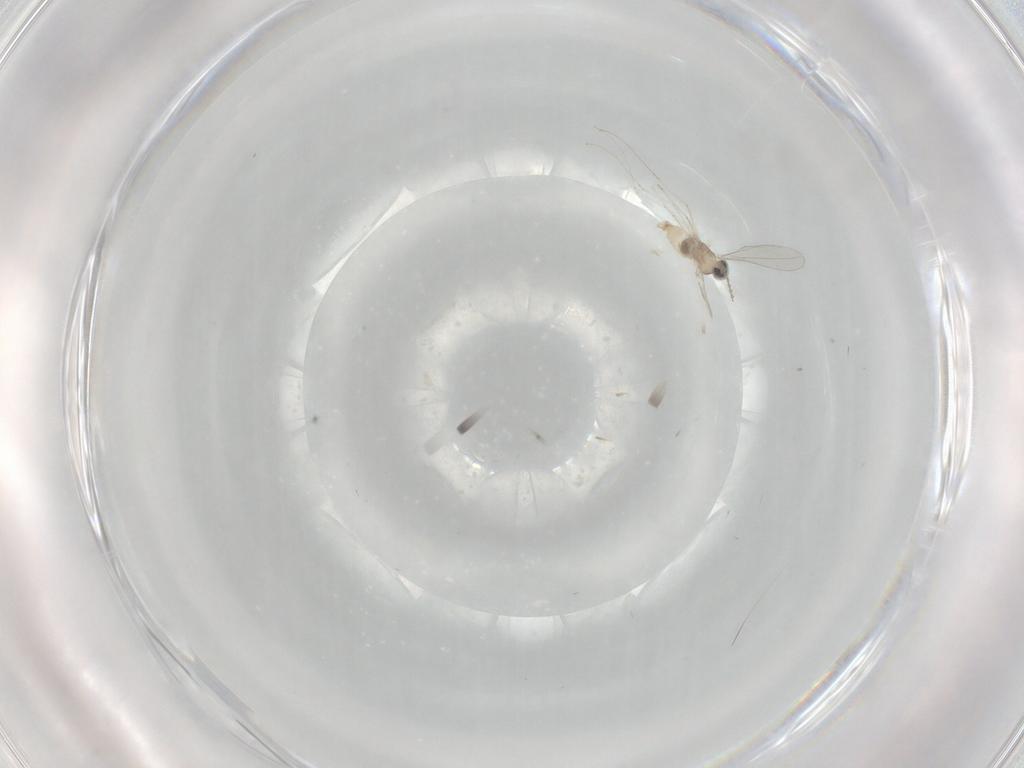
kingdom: Animalia
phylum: Arthropoda
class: Insecta
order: Diptera
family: Cecidomyiidae
